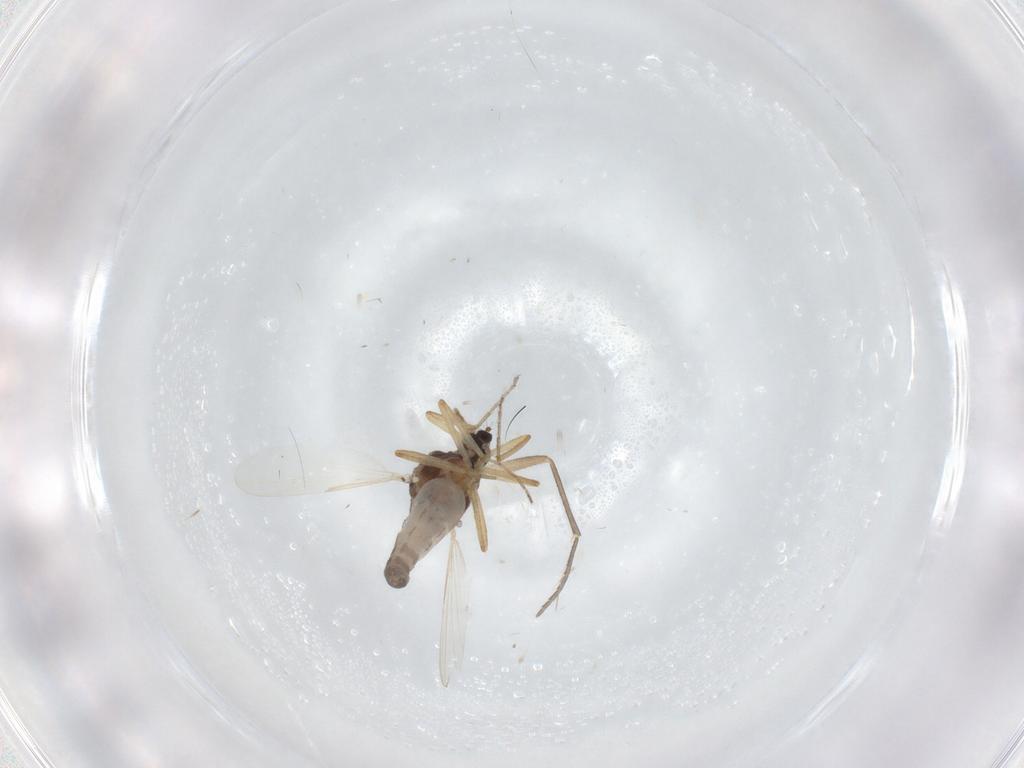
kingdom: Animalia
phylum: Arthropoda
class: Insecta
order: Diptera
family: Ceratopogonidae
